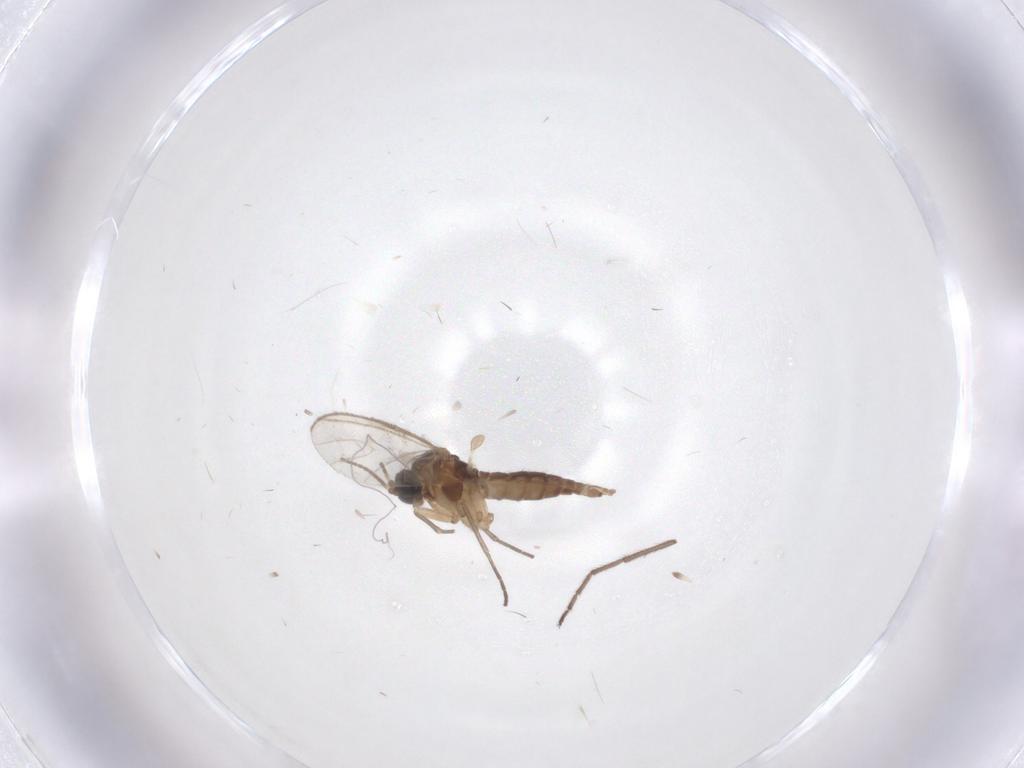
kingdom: Animalia
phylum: Arthropoda
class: Insecta
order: Diptera
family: Chironomidae
